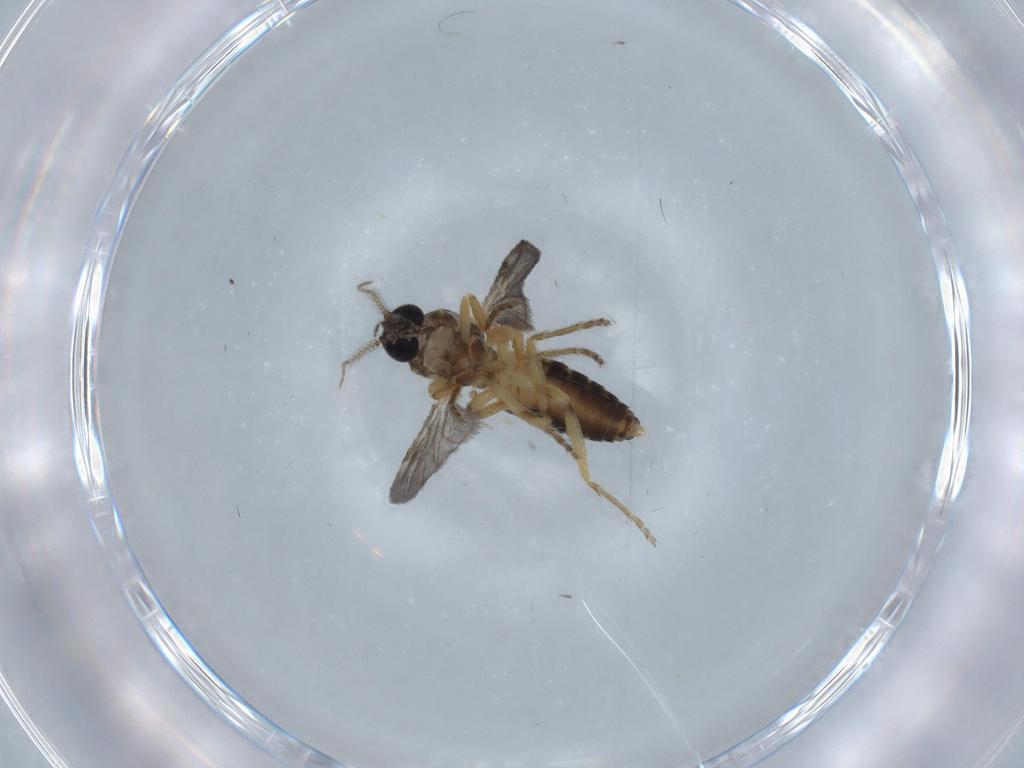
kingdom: Animalia
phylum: Arthropoda
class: Insecta
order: Diptera
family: Ceratopogonidae
